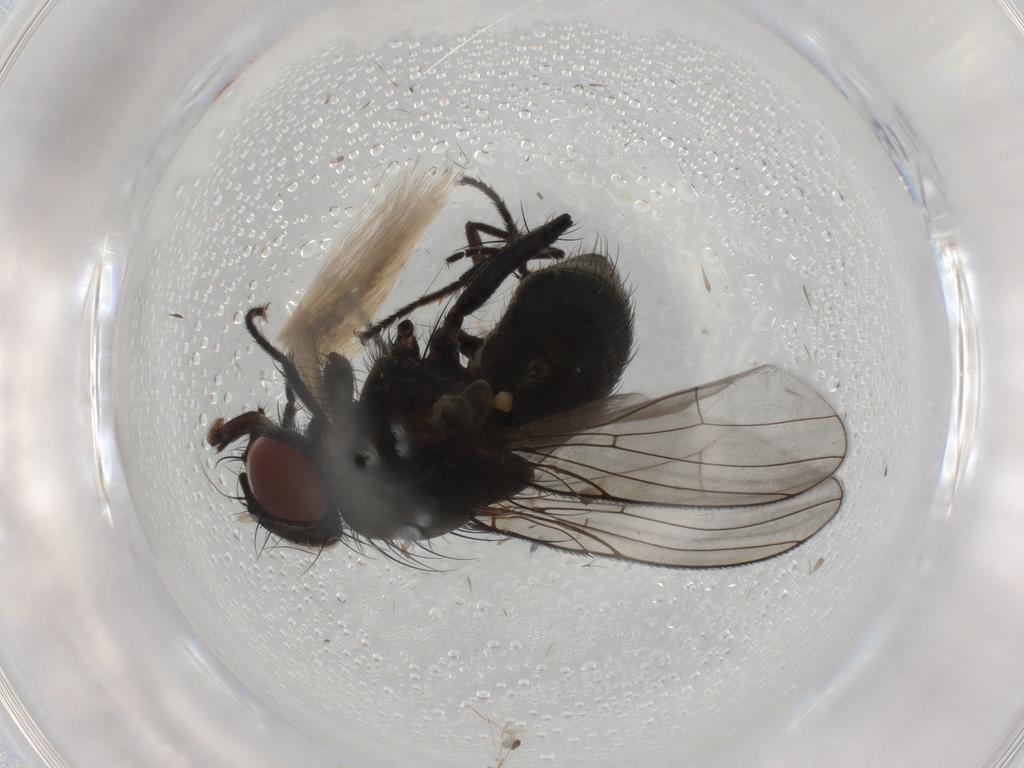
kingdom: Animalia
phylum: Arthropoda
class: Insecta
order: Diptera
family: Muscidae
